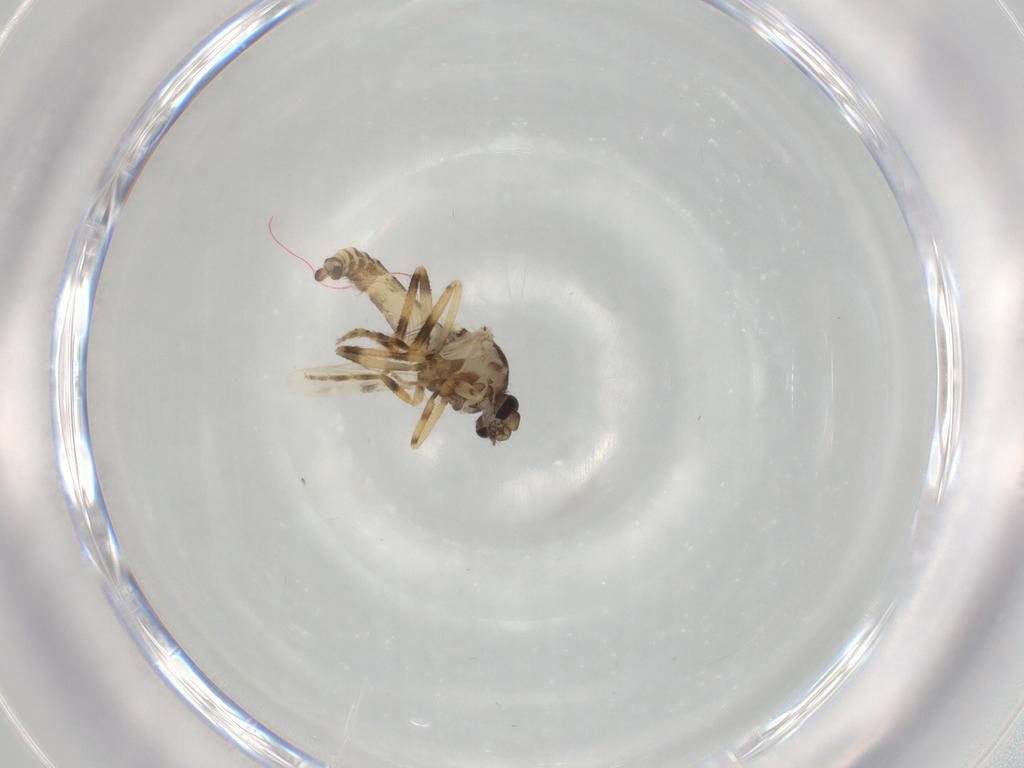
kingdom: Animalia
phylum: Arthropoda
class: Insecta
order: Diptera
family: Ceratopogonidae
